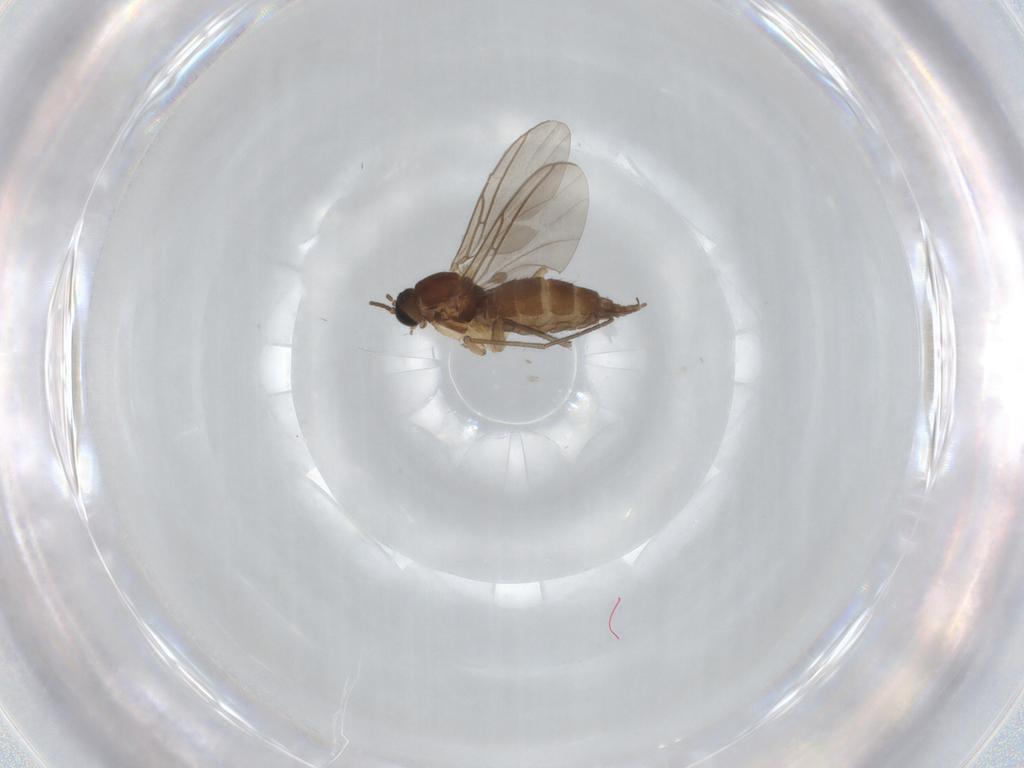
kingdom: Animalia
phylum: Arthropoda
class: Insecta
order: Diptera
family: Sciaridae
